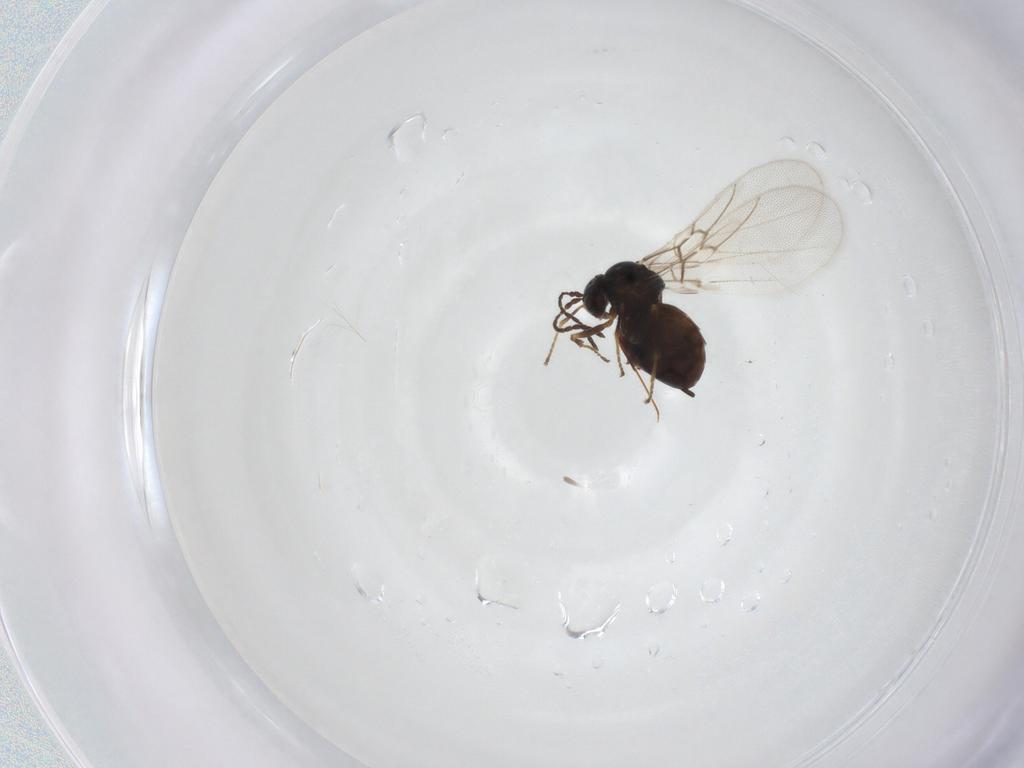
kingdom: Animalia
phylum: Arthropoda
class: Insecta
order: Hymenoptera
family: Cynipidae
